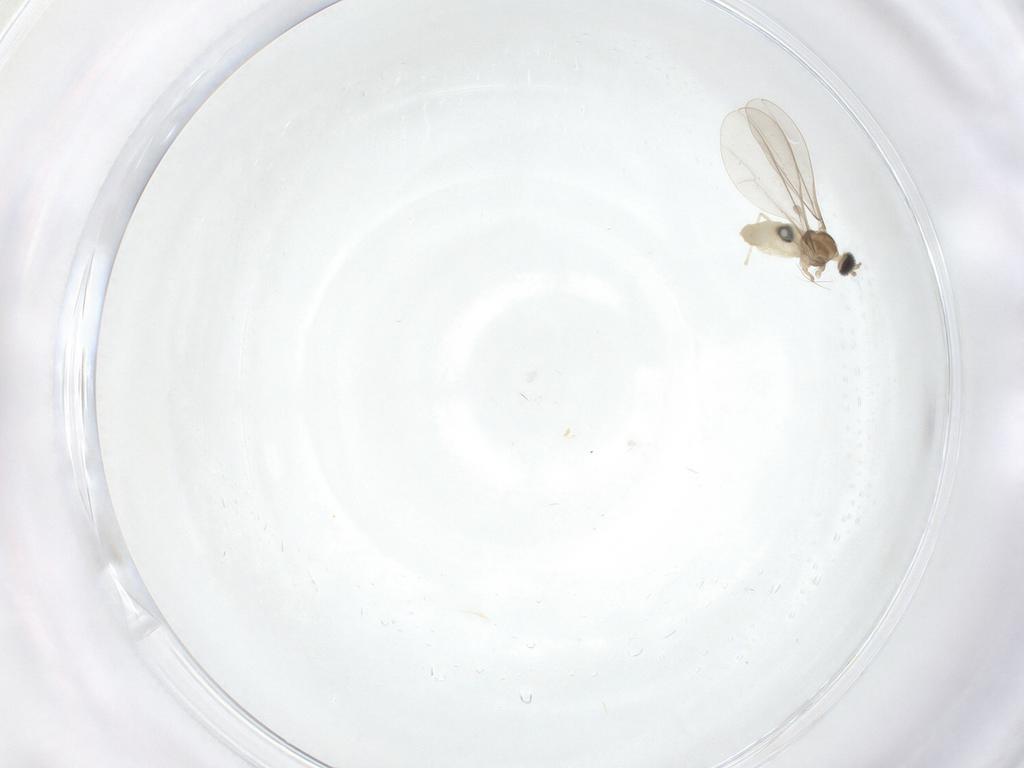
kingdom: Animalia
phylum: Arthropoda
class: Insecta
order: Diptera
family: Cecidomyiidae
